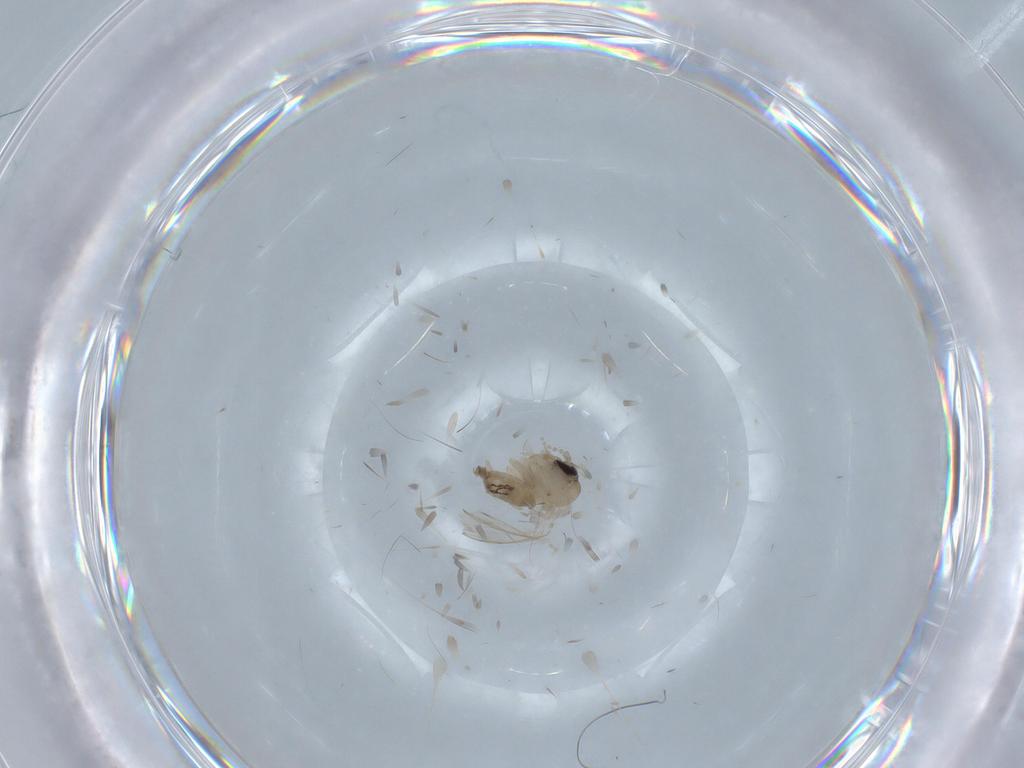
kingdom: Animalia
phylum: Arthropoda
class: Insecta
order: Diptera
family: Psychodidae
